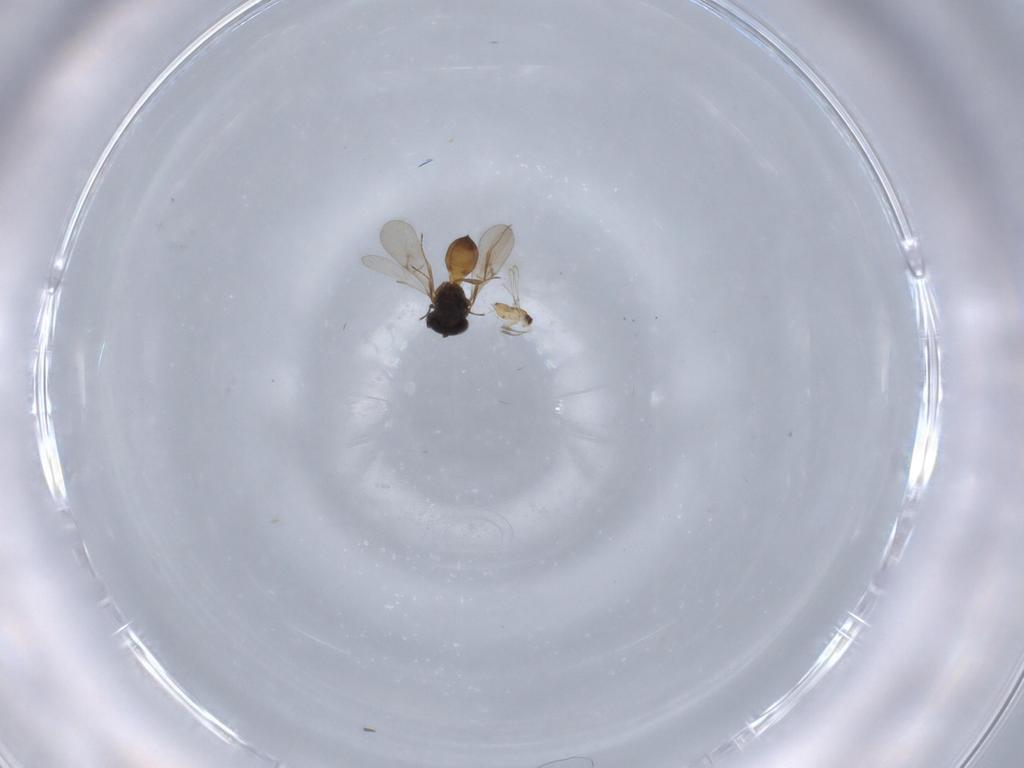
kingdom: Animalia
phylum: Arthropoda
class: Insecta
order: Hymenoptera
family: Scelionidae
